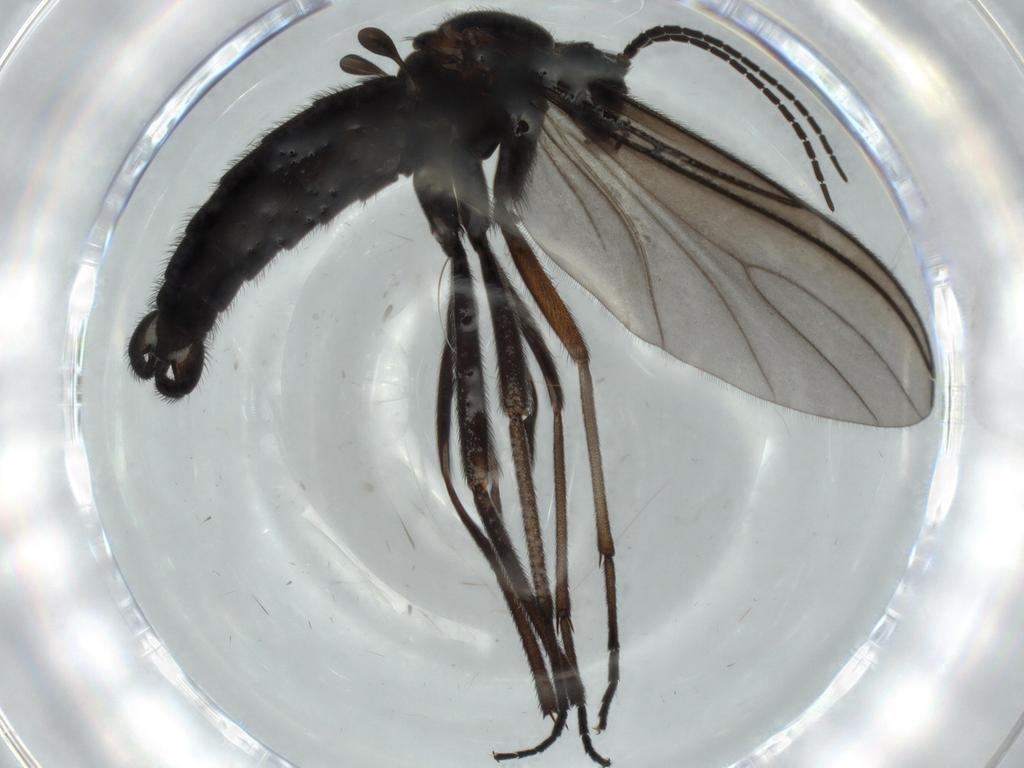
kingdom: Animalia
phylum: Arthropoda
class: Insecta
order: Diptera
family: Sciaridae
